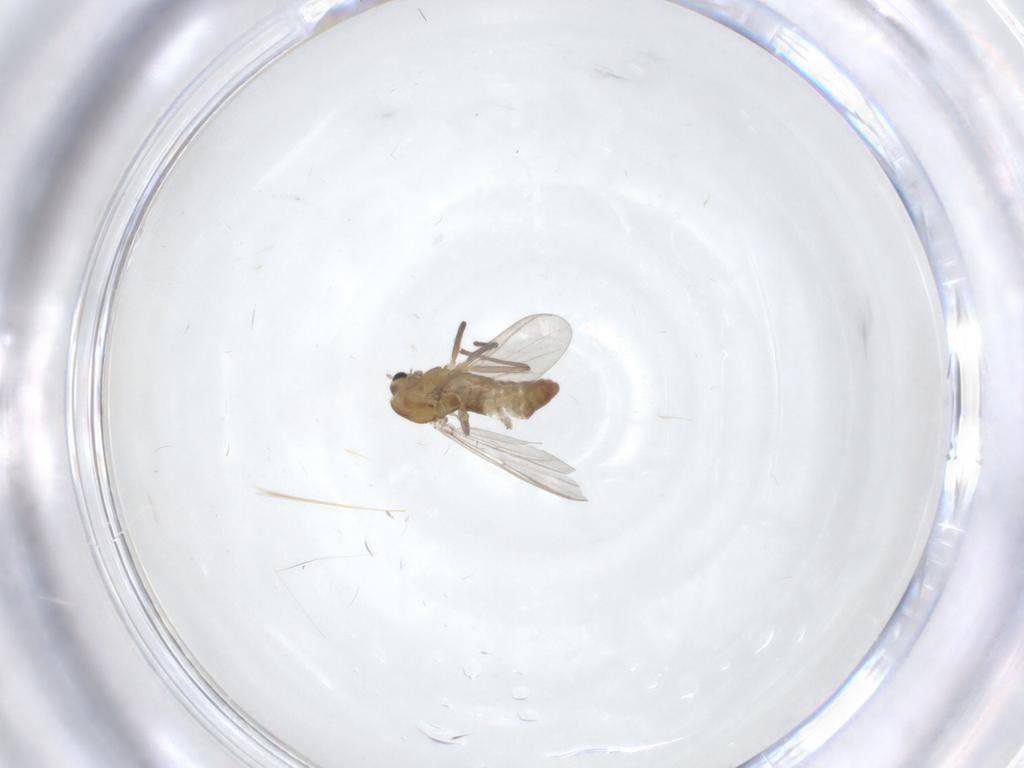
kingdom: Animalia
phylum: Arthropoda
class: Insecta
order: Diptera
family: Chironomidae
